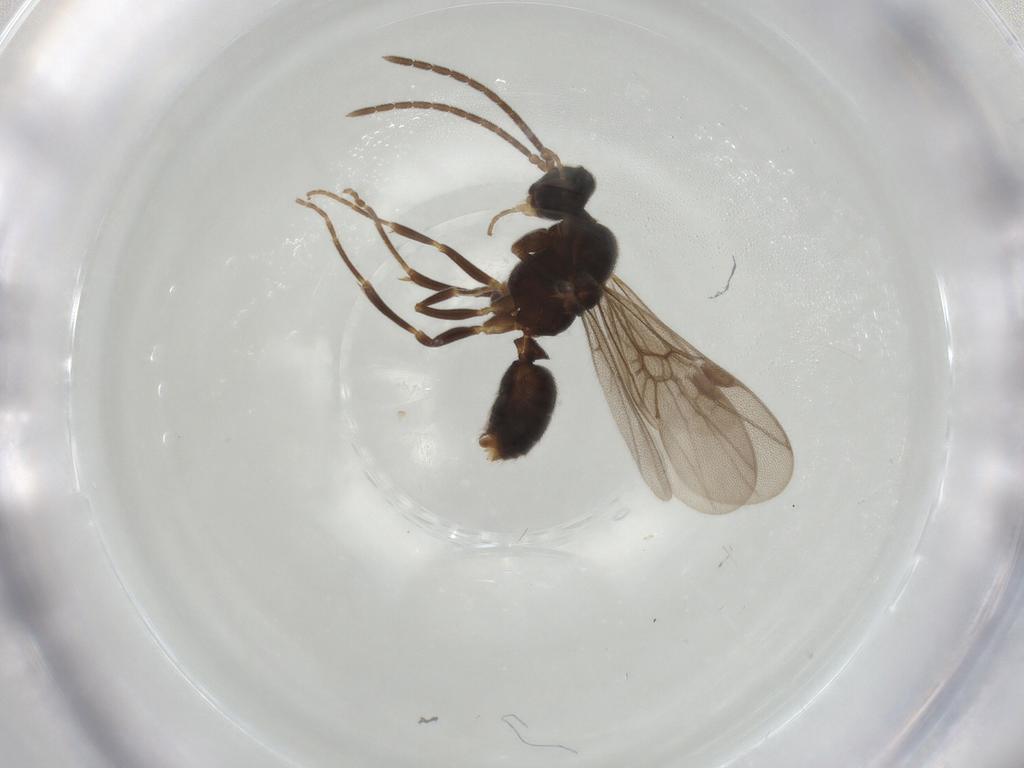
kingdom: Animalia
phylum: Arthropoda
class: Insecta
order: Hymenoptera
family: Formicidae
